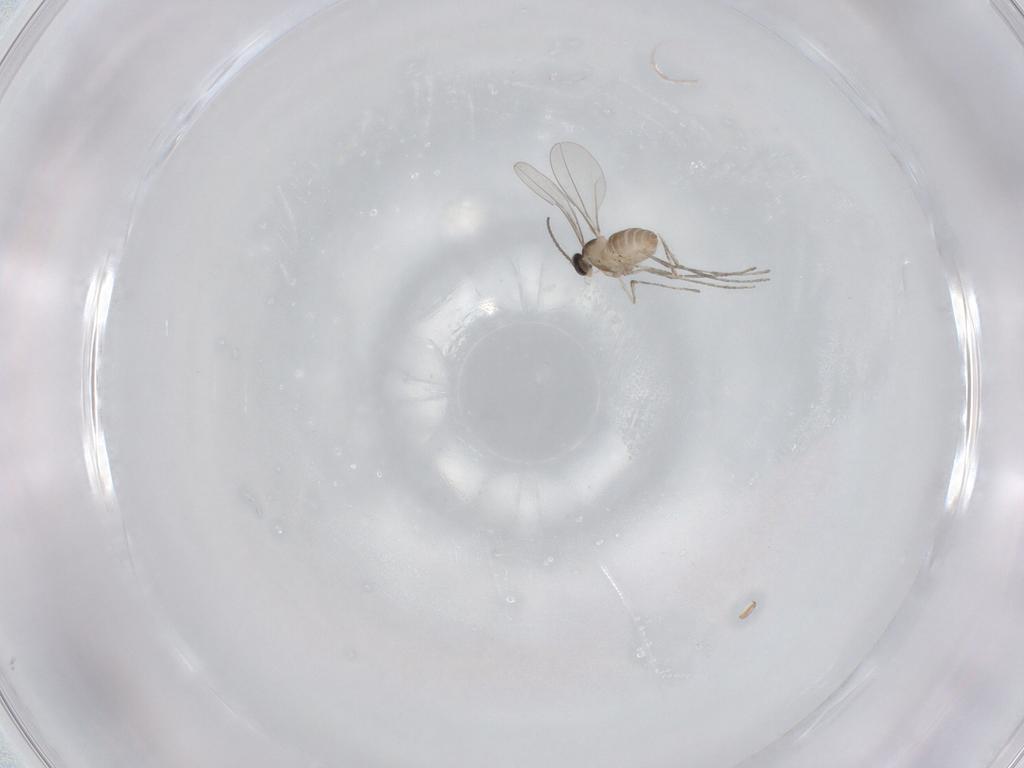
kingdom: Animalia
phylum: Arthropoda
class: Insecta
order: Diptera
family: Cecidomyiidae
